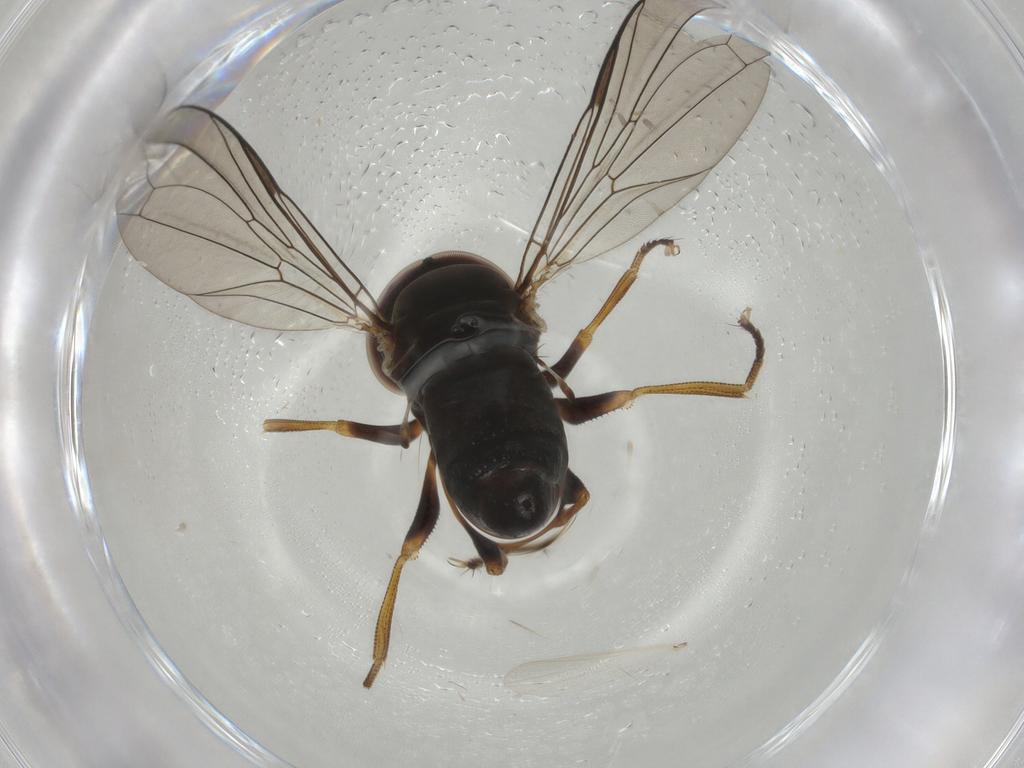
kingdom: Animalia
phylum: Arthropoda
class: Insecta
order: Diptera
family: Pipunculidae
